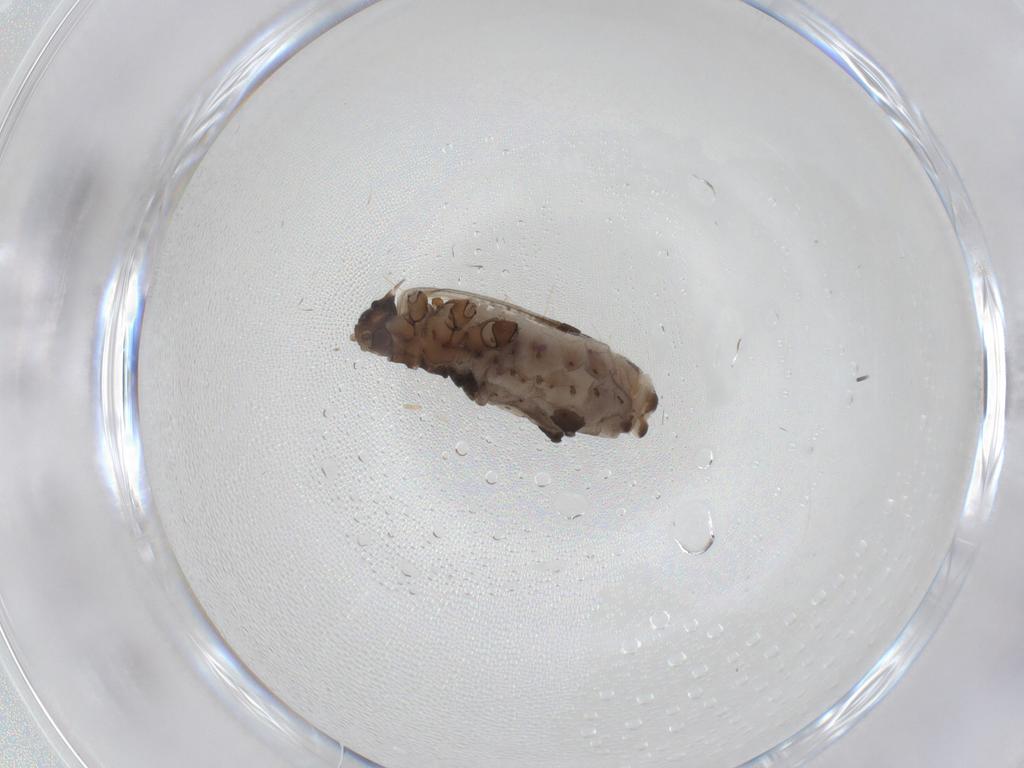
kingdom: Animalia
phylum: Arthropoda
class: Insecta
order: Hemiptera
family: Aphididae
